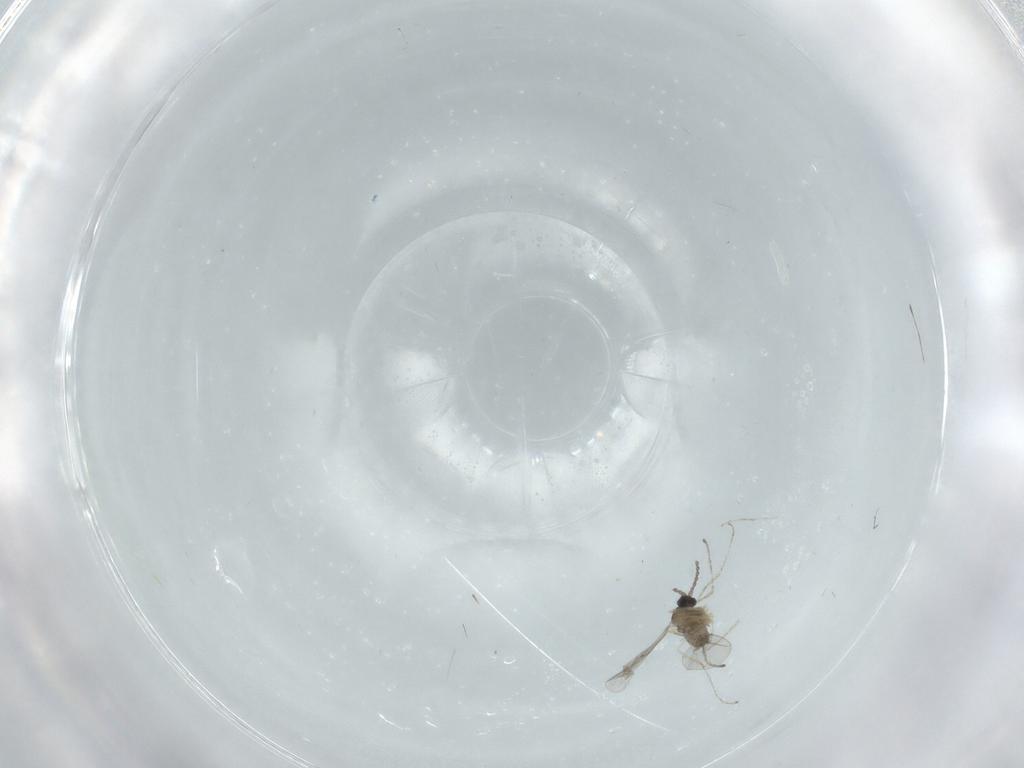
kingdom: Animalia
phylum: Arthropoda
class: Insecta
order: Diptera
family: Cecidomyiidae
